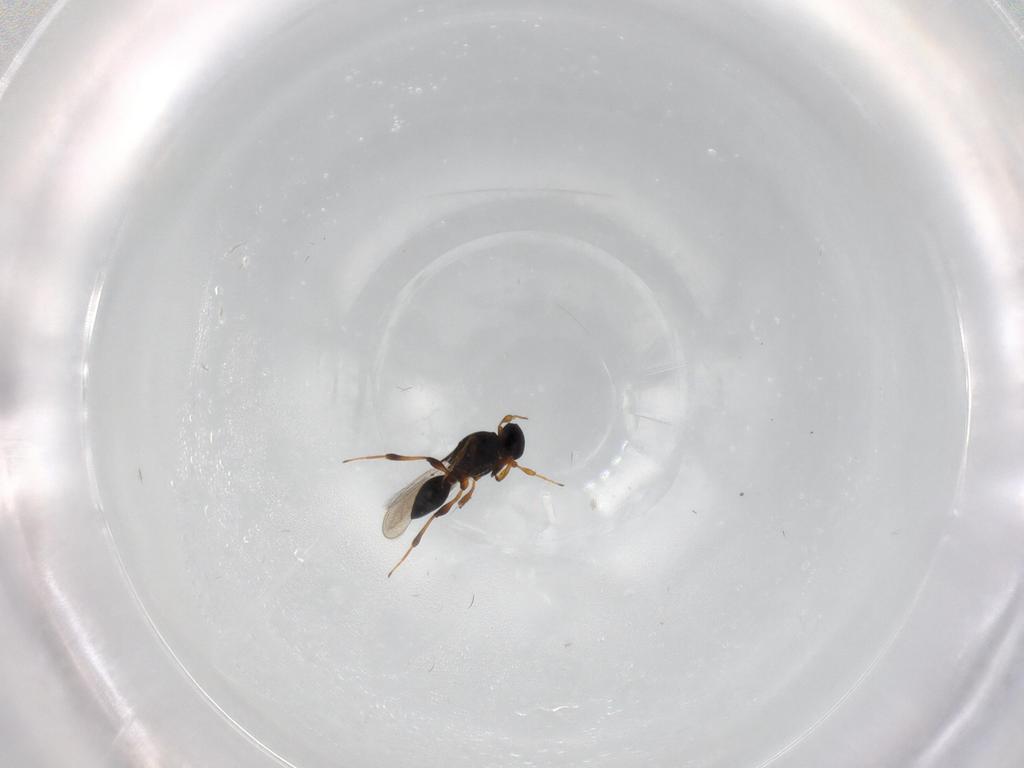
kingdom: Animalia
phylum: Arthropoda
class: Insecta
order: Hymenoptera
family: Platygastridae
